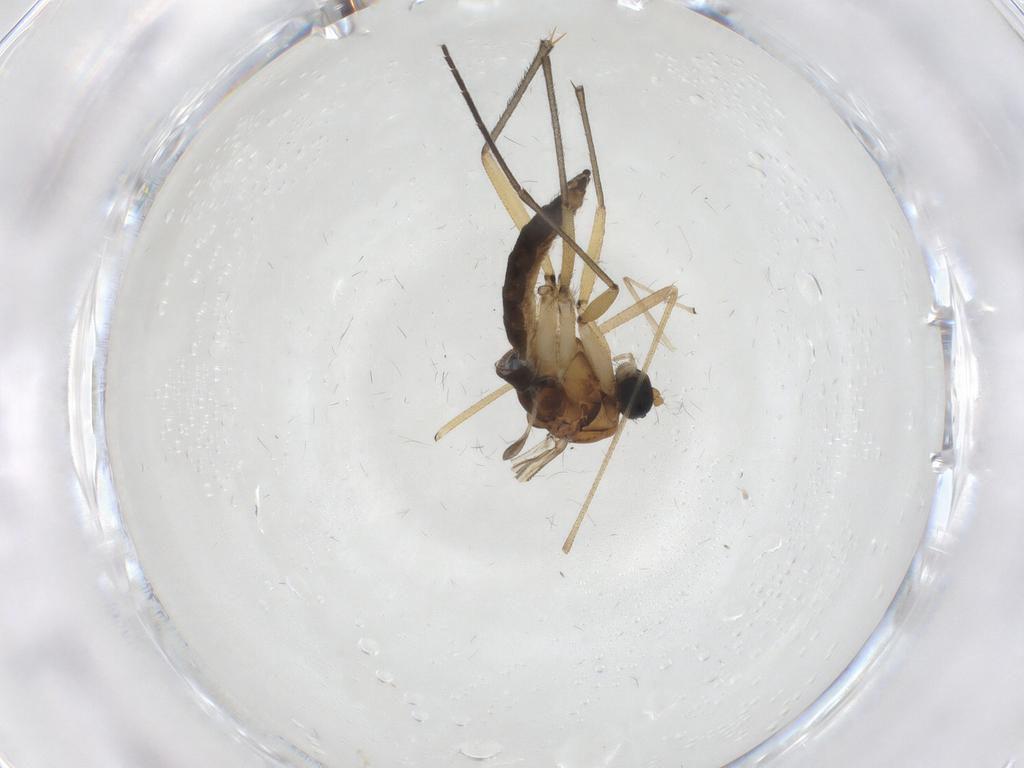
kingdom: Animalia
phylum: Arthropoda
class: Insecta
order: Diptera
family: Sciaridae
